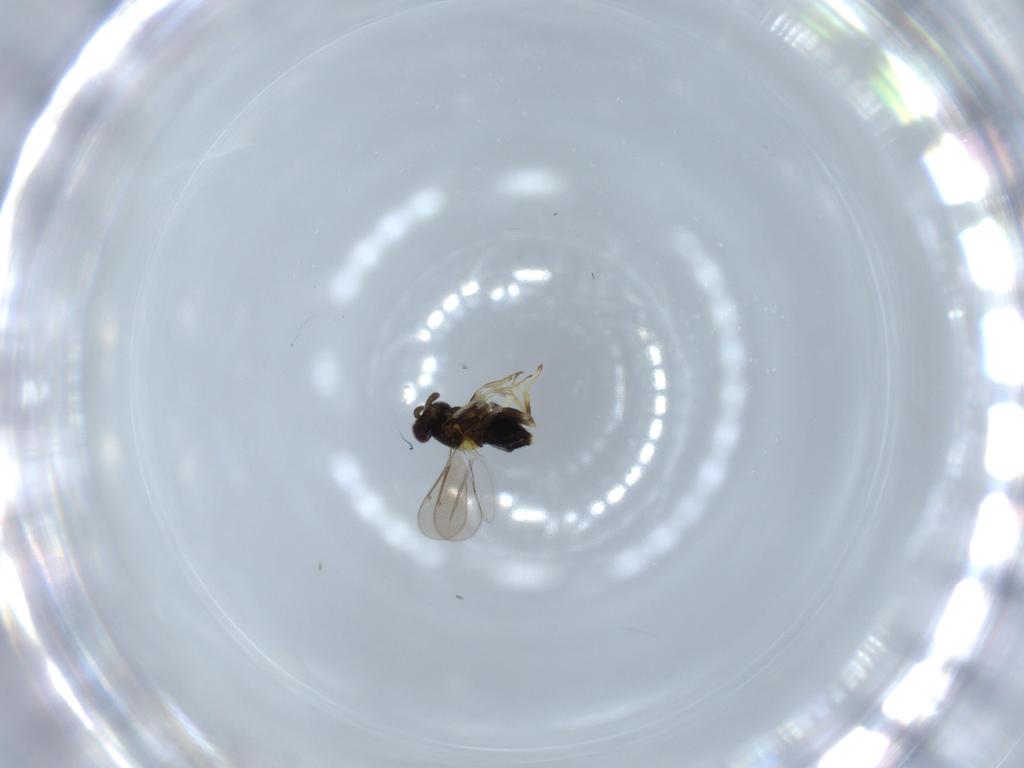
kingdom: Animalia
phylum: Arthropoda
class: Insecta
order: Hymenoptera
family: Aphelinidae
